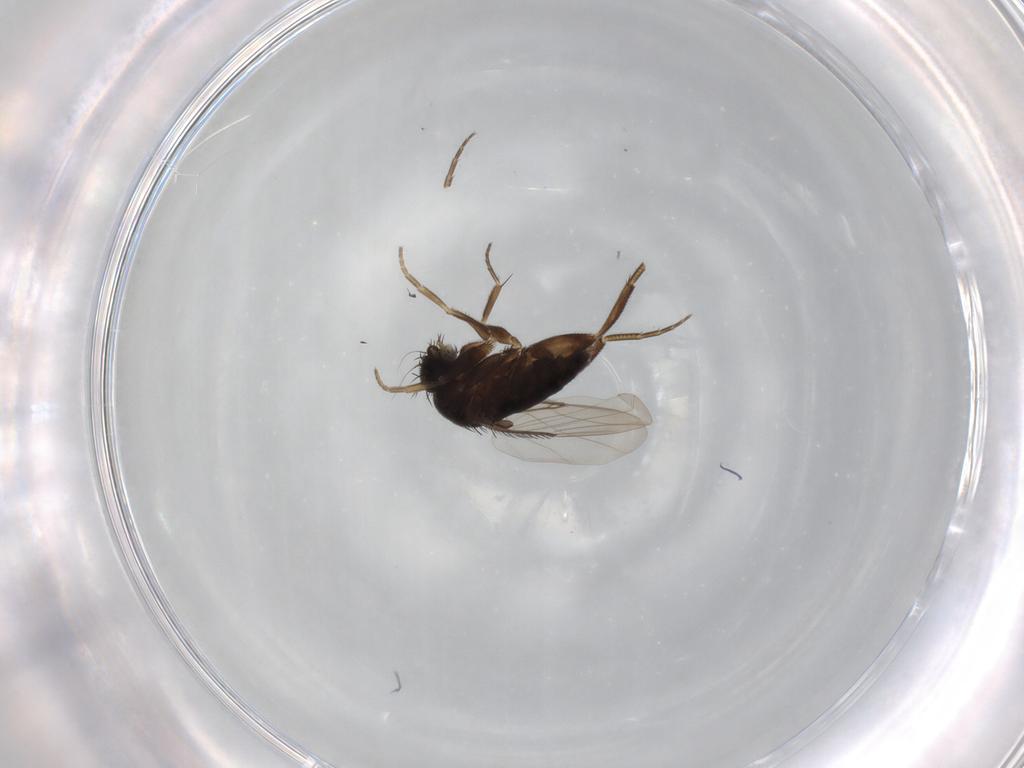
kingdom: Animalia
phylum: Arthropoda
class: Insecta
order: Diptera
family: Phoridae
